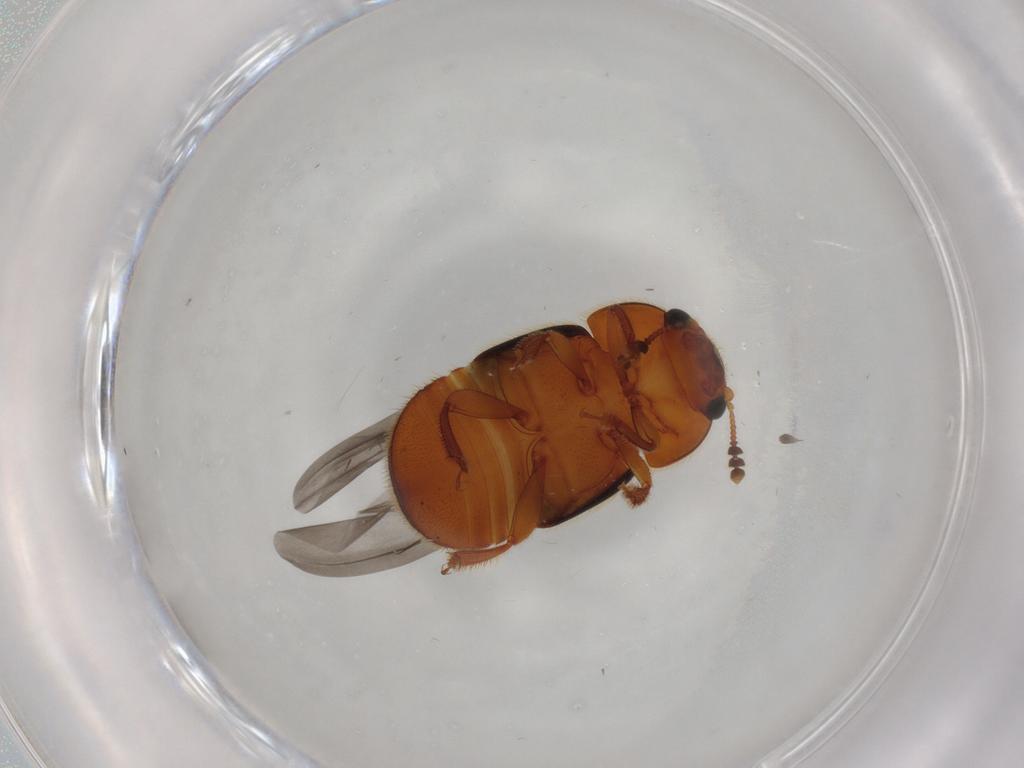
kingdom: Animalia
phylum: Arthropoda
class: Insecta
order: Coleoptera
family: Nitidulidae
